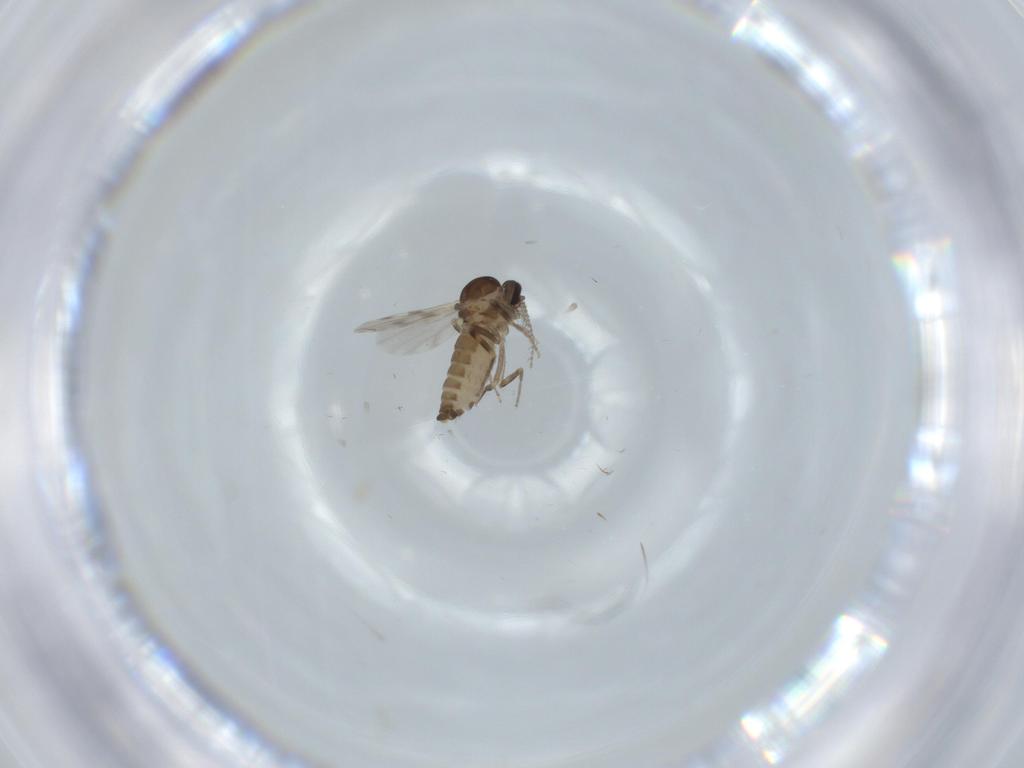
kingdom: Animalia
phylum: Arthropoda
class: Insecta
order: Diptera
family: Ceratopogonidae
